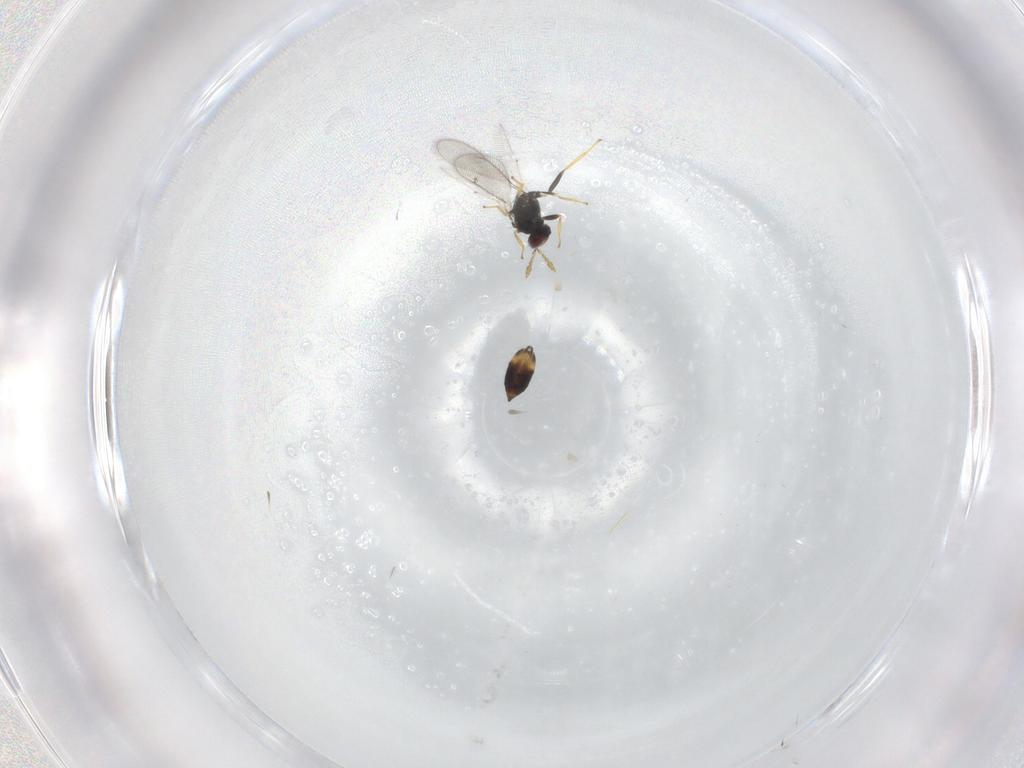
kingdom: Animalia
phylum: Arthropoda
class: Insecta
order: Hymenoptera
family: Eulophidae
